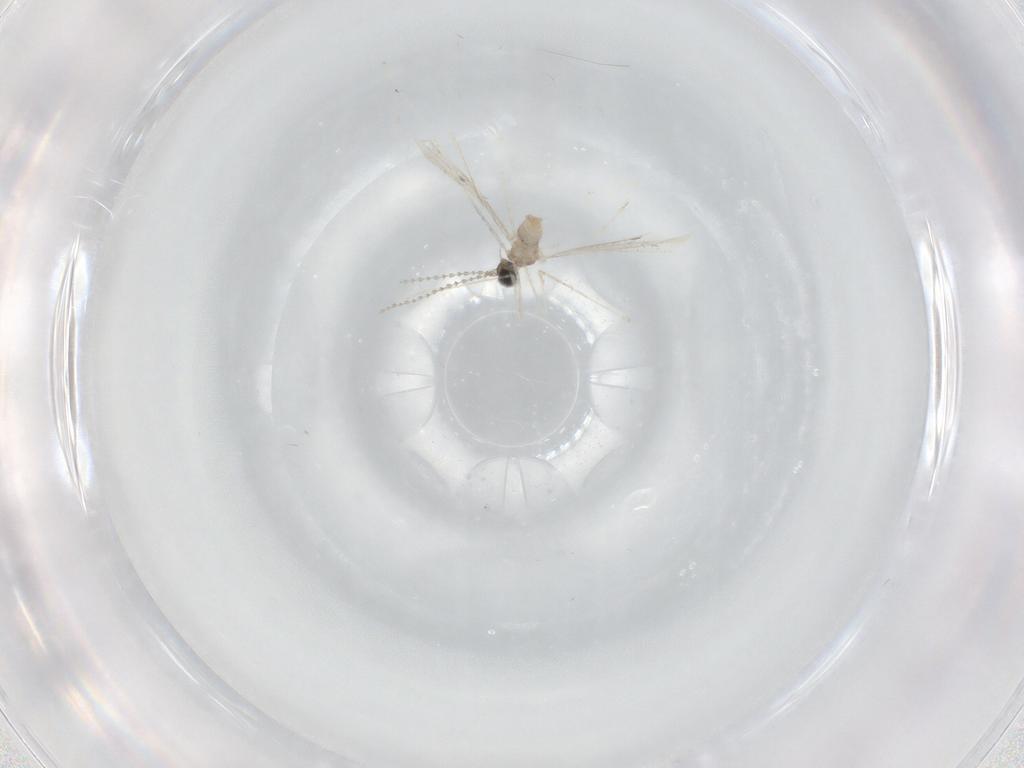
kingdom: Animalia
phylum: Arthropoda
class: Insecta
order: Diptera
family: Cecidomyiidae
